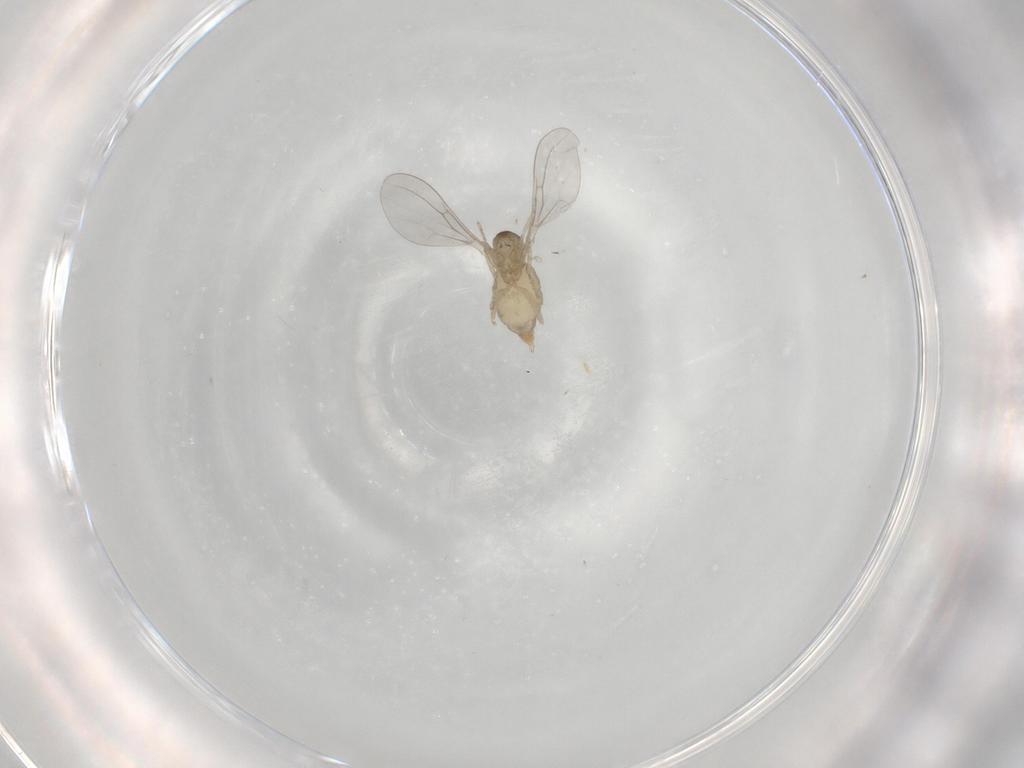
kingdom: Animalia
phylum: Arthropoda
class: Insecta
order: Diptera
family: Cecidomyiidae
